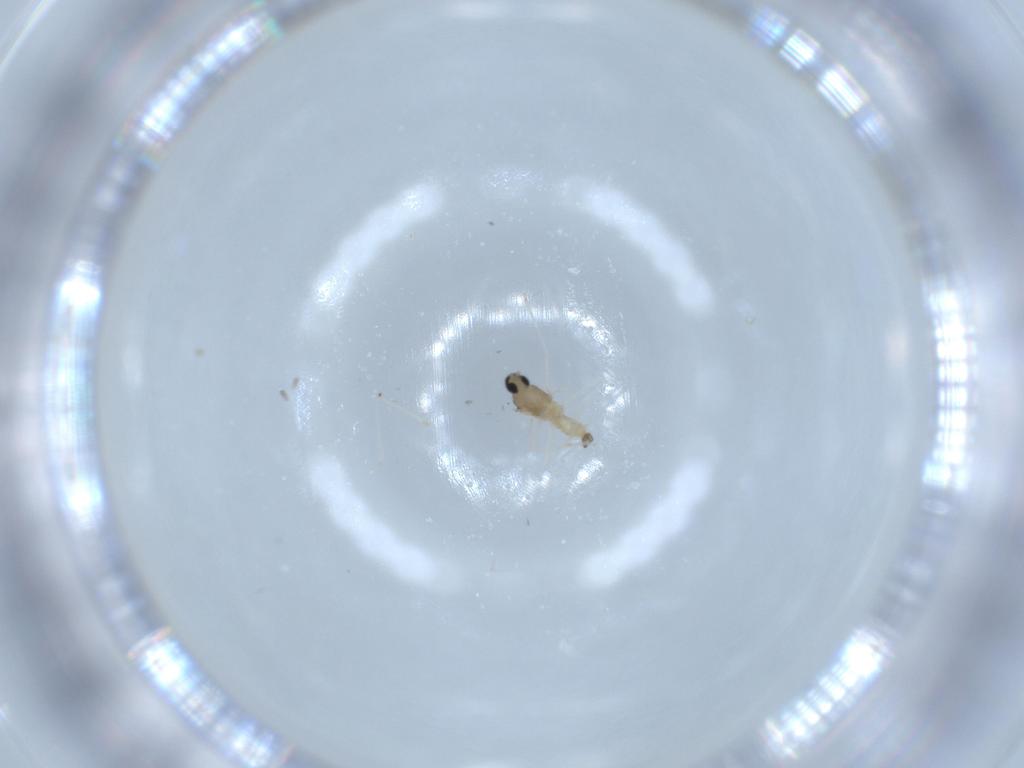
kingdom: Animalia
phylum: Arthropoda
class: Insecta
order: Diptera
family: Cecidomyiidae
